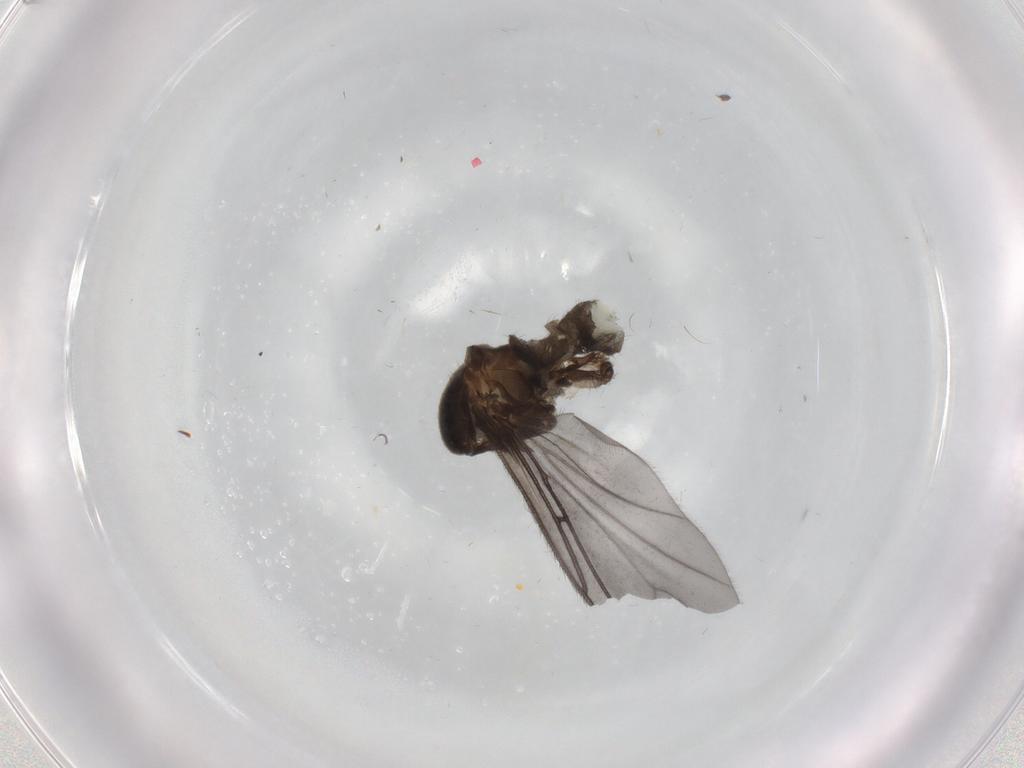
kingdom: Animalia
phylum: Arthropoda
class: Insecta
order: Diptera
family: Sciaridae
